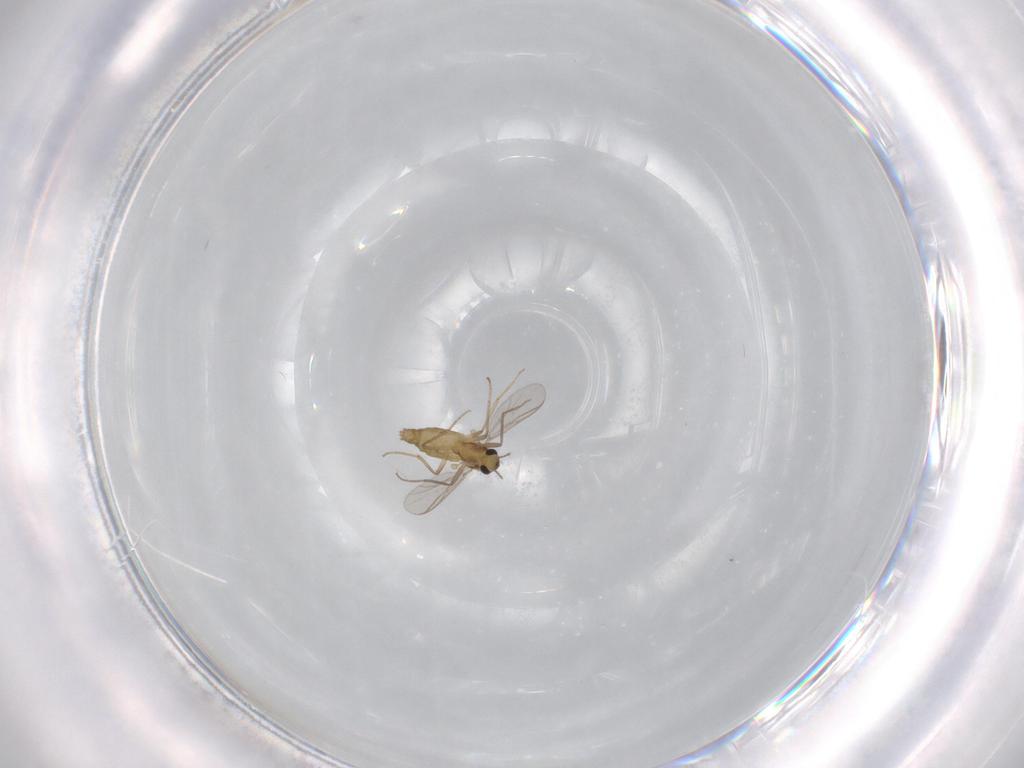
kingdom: Animalia
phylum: Arthropoda
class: Insecta
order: Diptera
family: Chironomidae
